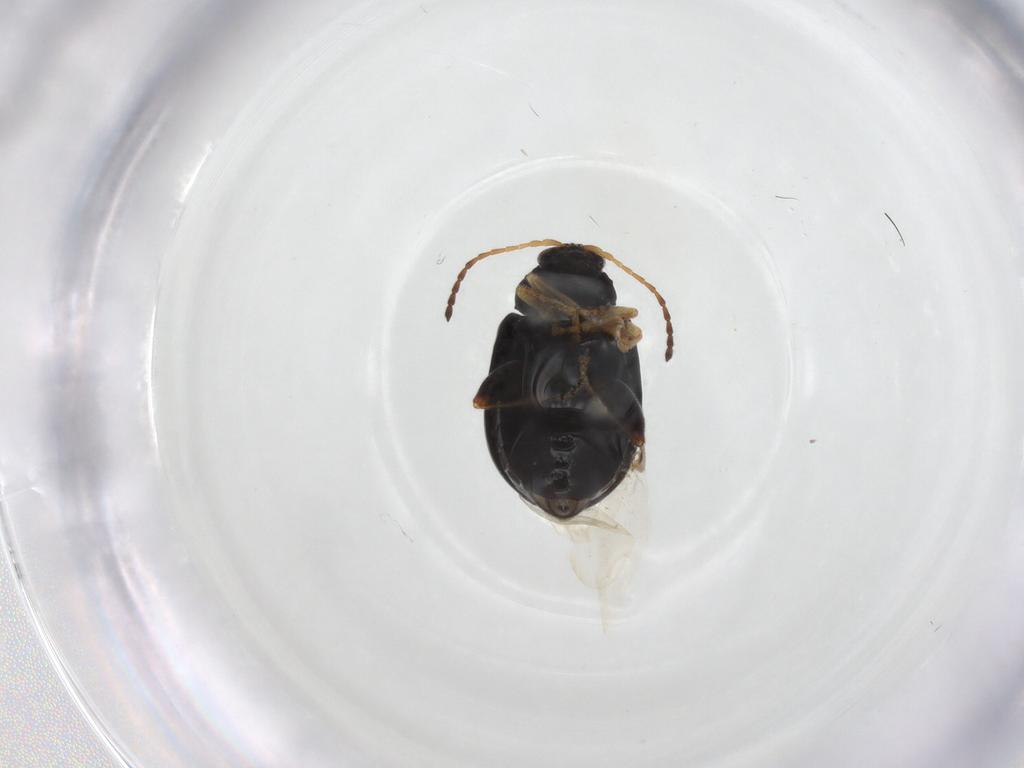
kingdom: Animalia
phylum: Arthropoda
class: Insecta
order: Coleoptera
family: Chrysomelidae
